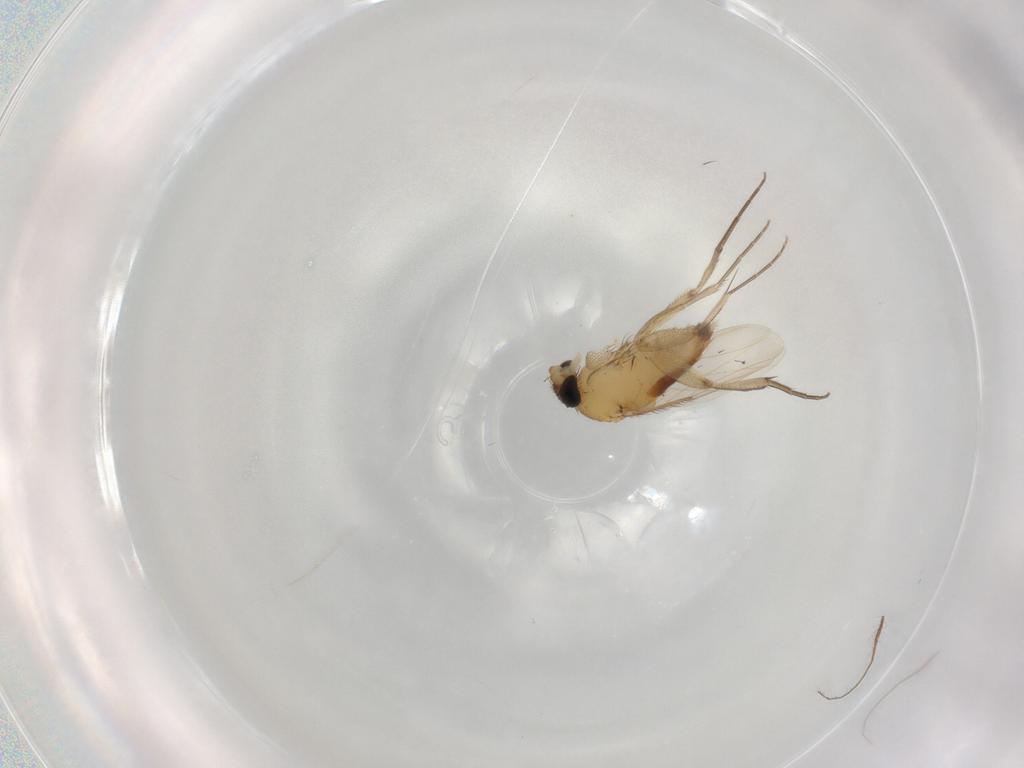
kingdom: Animalia
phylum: Arthropoda
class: Insecta
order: Diptera
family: Phoridae
